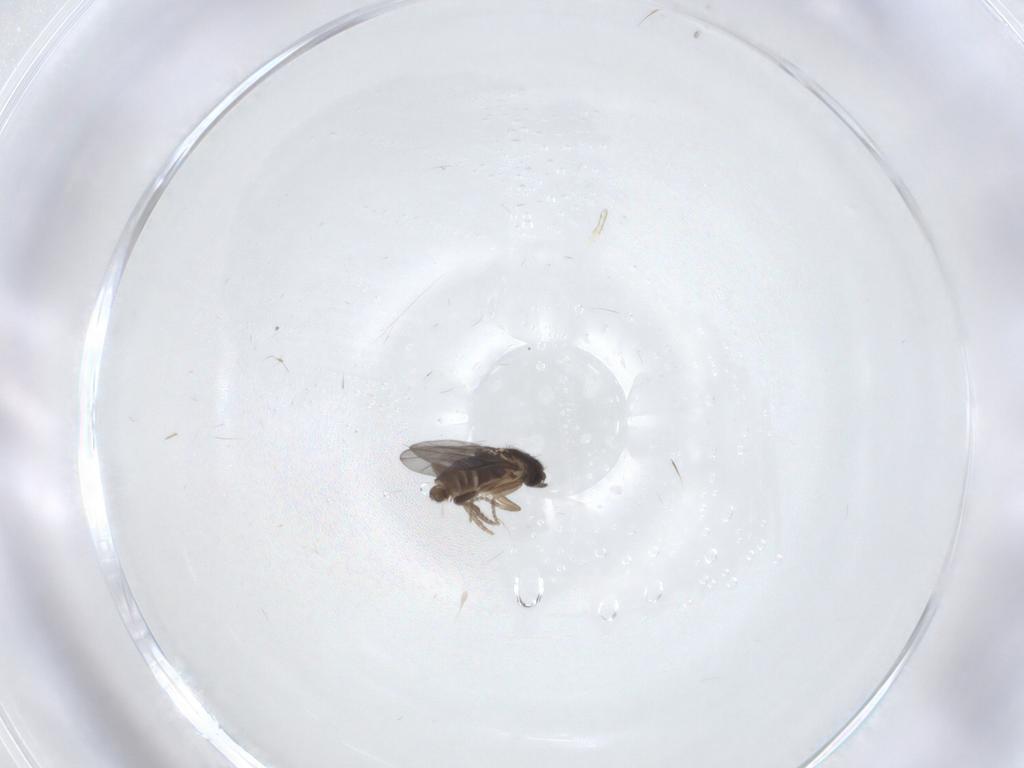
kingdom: Animalia
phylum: Arthropoda
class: Insecta
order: Diptera
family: Psychodidae
